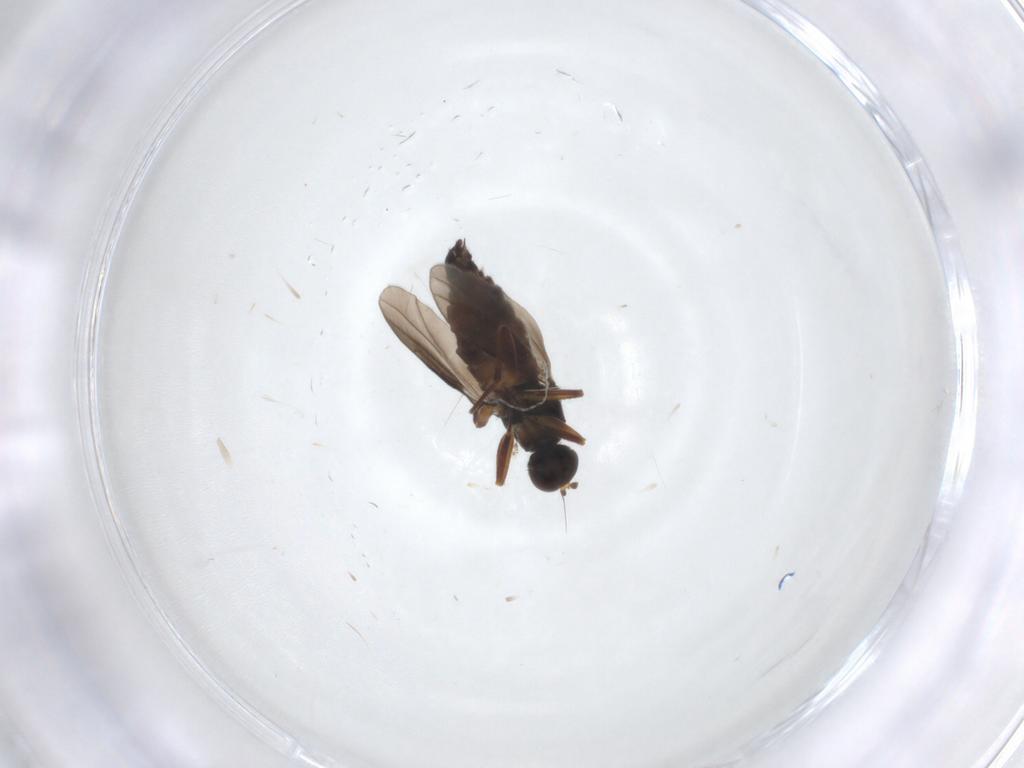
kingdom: Animalia
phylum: Arthropoda
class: Insecta
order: Diptera
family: Hybotidae
